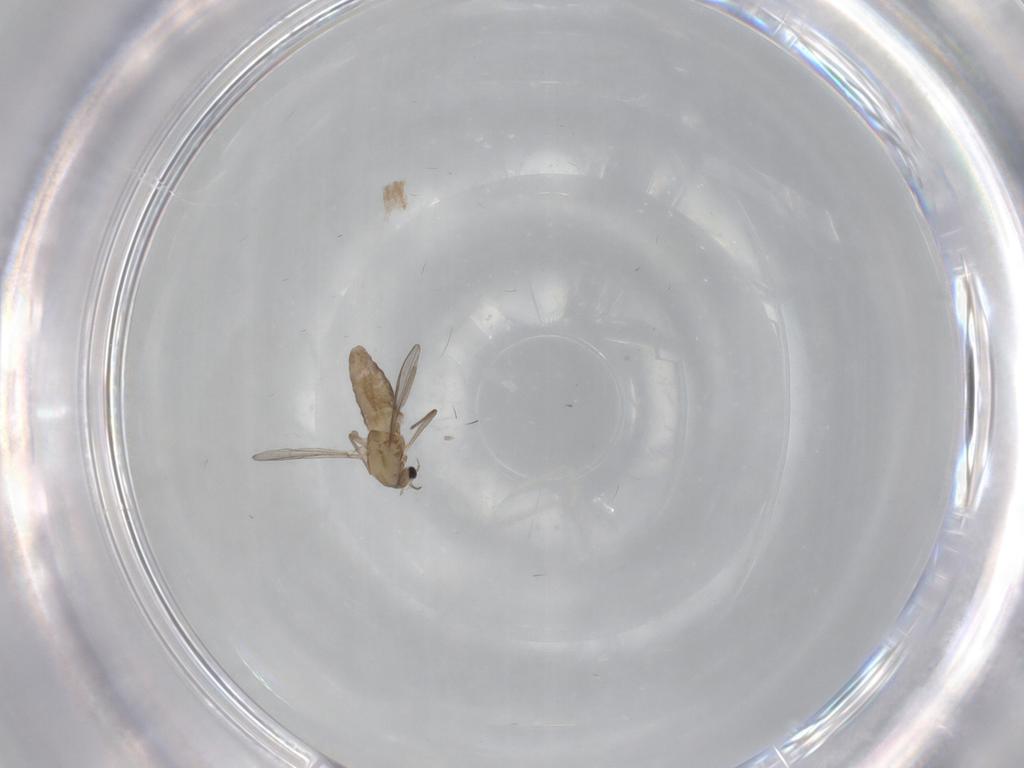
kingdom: Animalia
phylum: Arthropoda
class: Insecta
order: Diptera
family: Chironomidae
